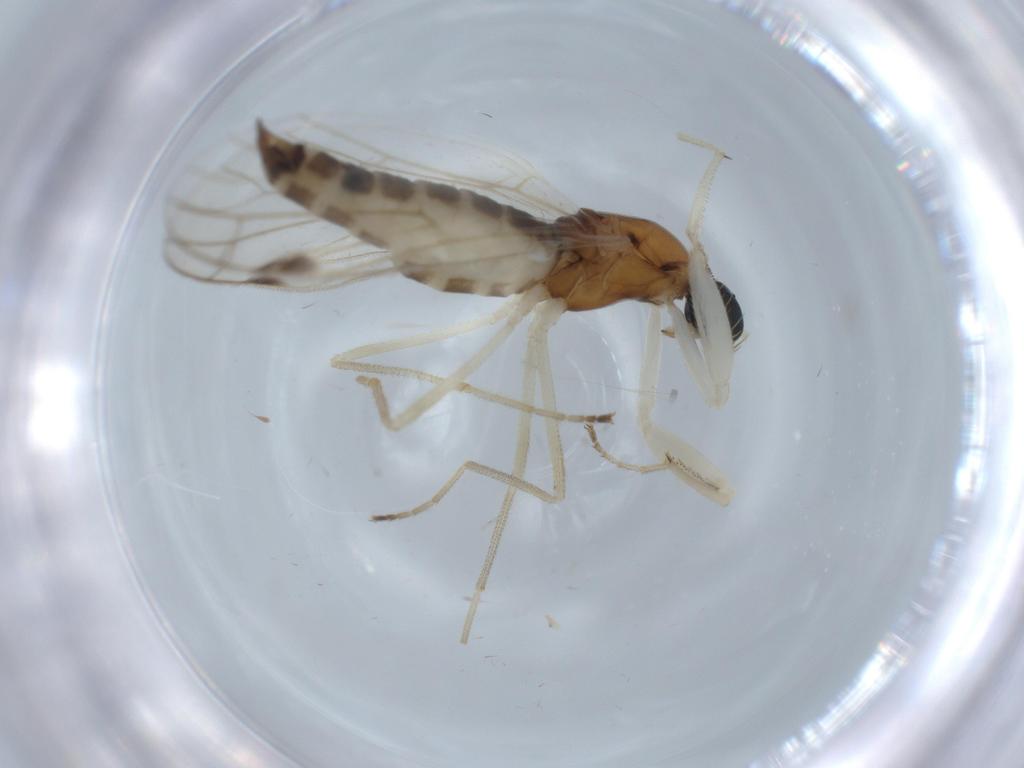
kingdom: Animalia
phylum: Arthropoda
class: Insecta
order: Diptera
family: Empididae
